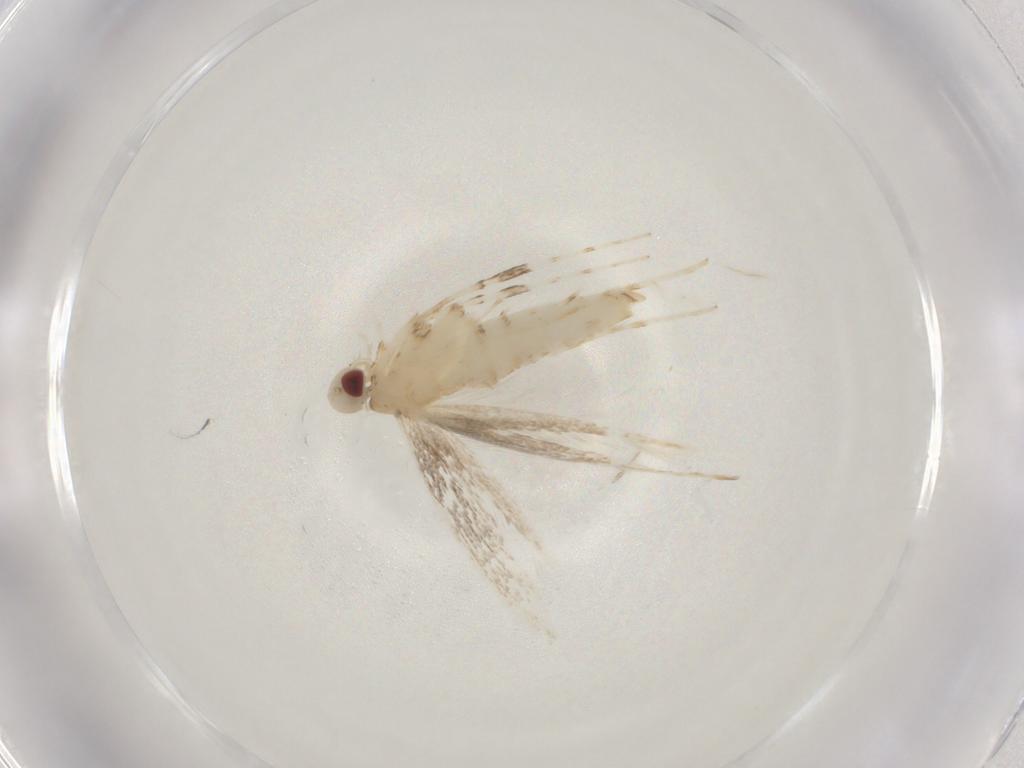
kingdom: Animalia
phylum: Arthropoda
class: Insecta
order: Lepidoptera
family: Gracillariidae
